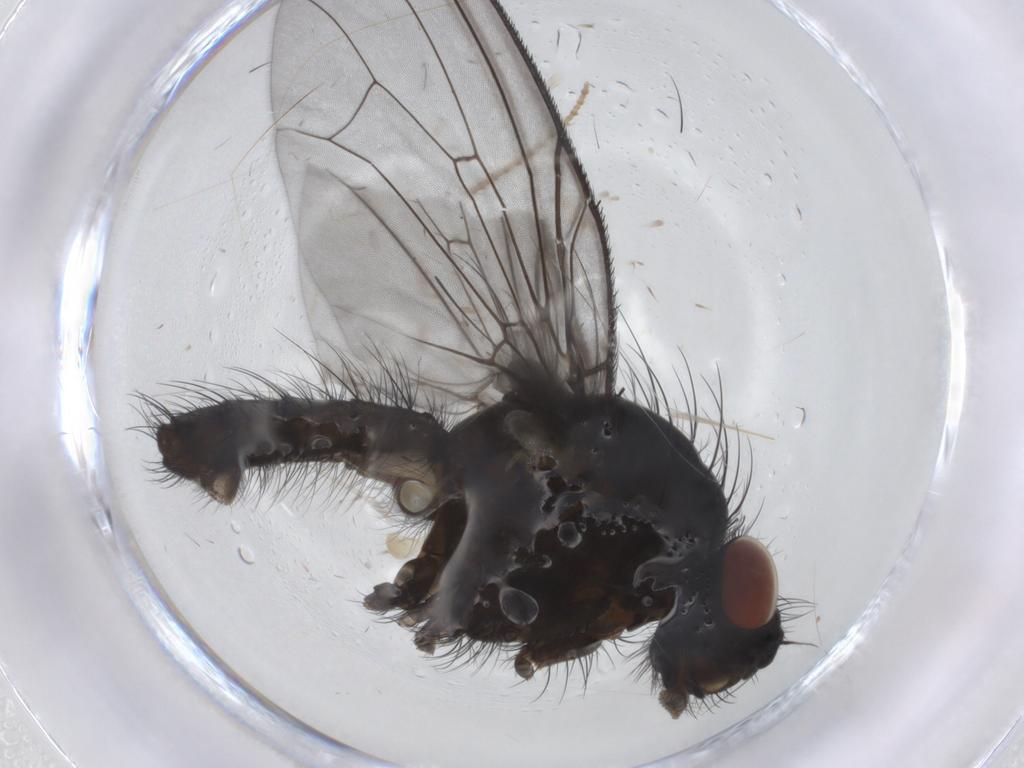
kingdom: Animalia
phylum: Arthropoda
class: Insecta
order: Diptera
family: Anthomyiidae
